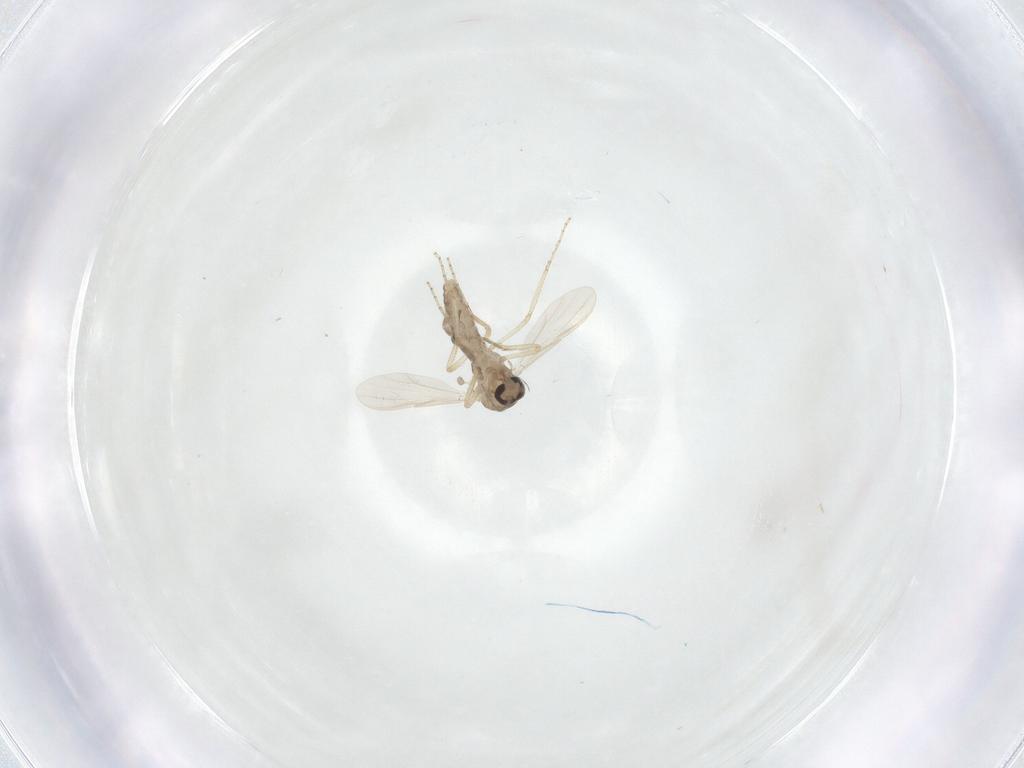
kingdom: Animalia
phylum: Arthropoda
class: Insecta
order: Diptera
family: Ceratopogonidae
